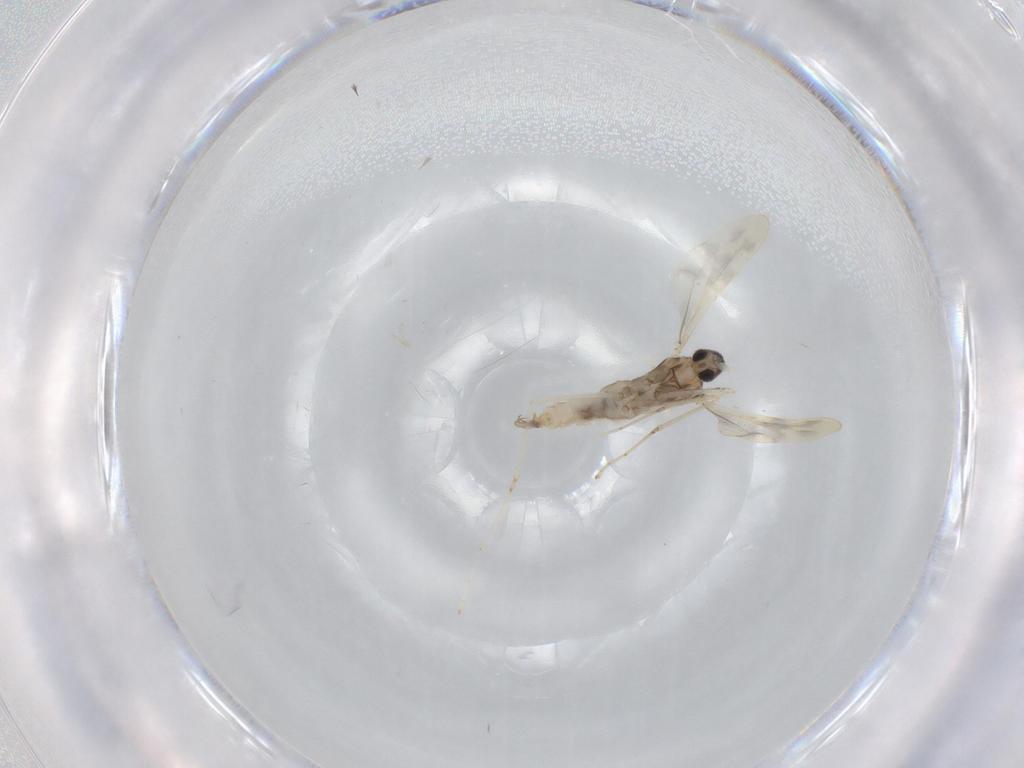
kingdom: Animalia
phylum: Arthropoda
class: Insecta
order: Diptera
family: Cecidomyiidae
